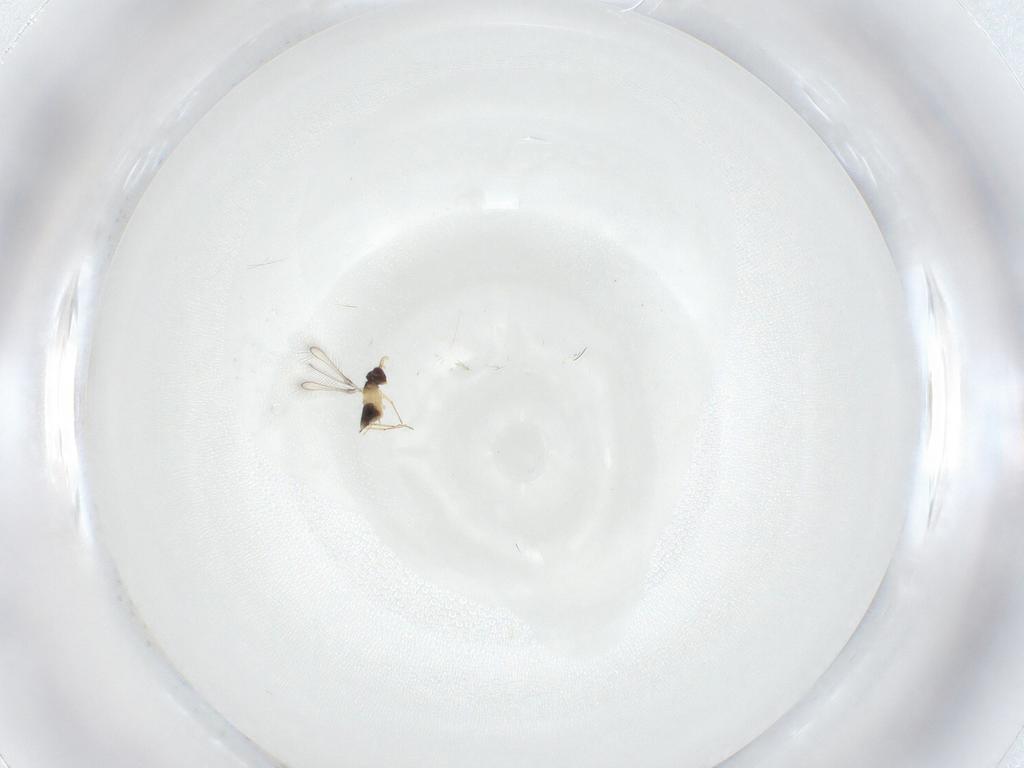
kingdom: Animalia
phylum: Arthropoda
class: Insecta
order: Hymenoptera
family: Mymaridae
